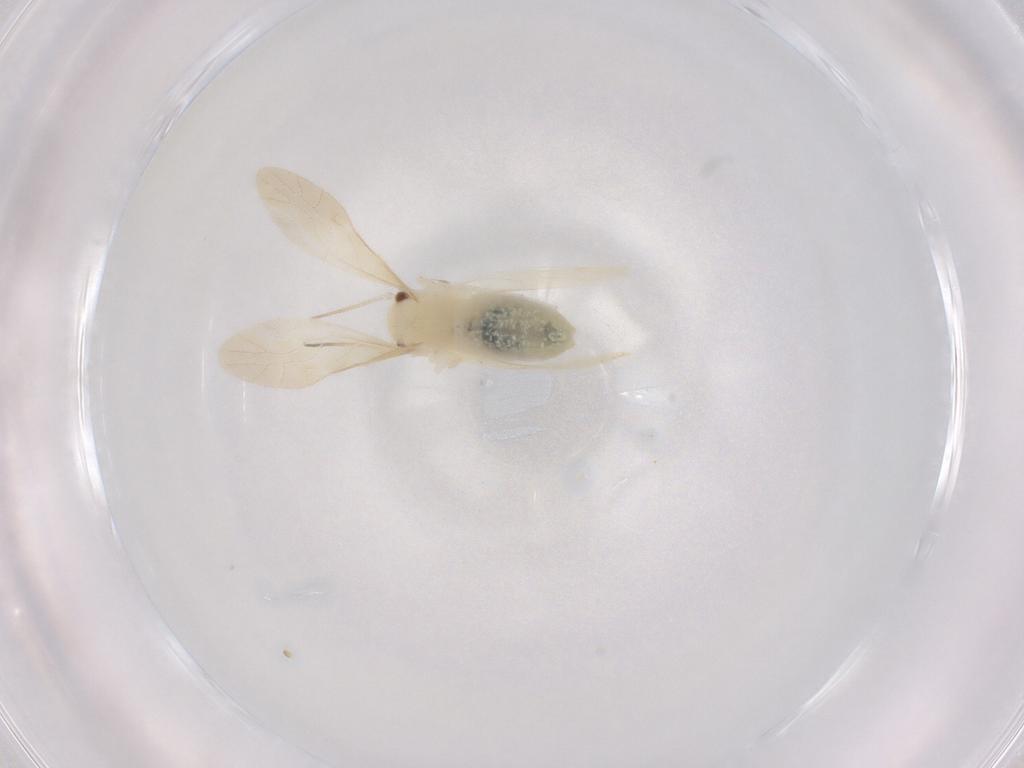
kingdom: Animalia
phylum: Arthropoda
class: Insecta
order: Psocodea
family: Caeciliusidae
